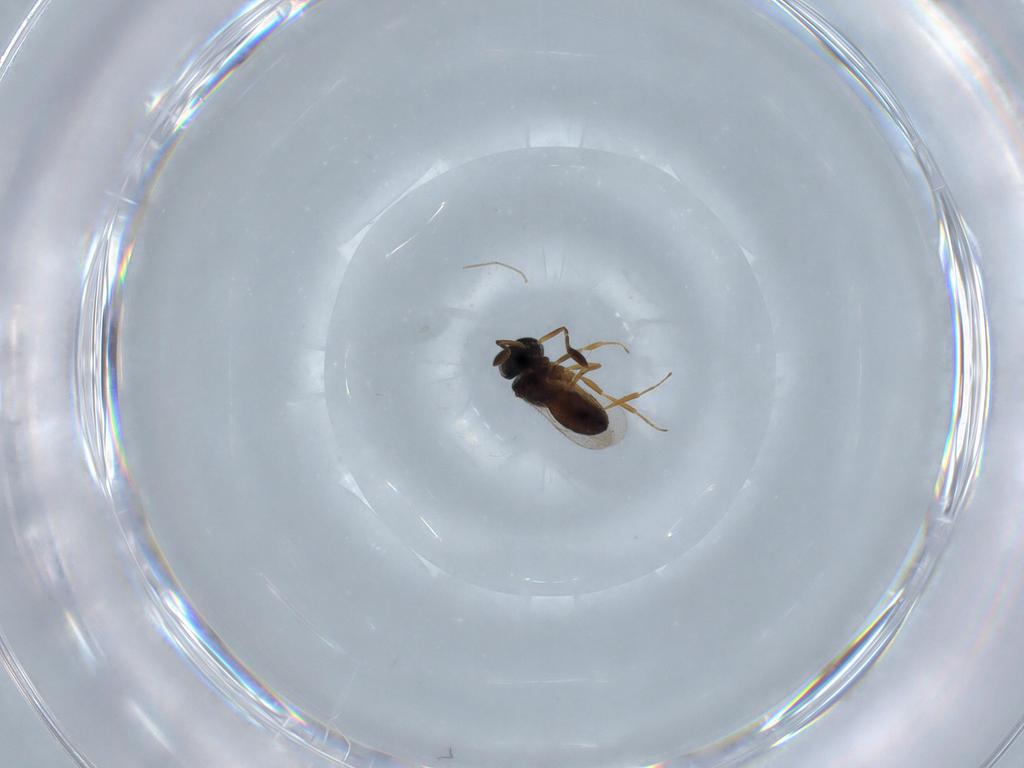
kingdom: Animalia
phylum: Arthropoda
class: Insecta
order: Hymenoptera
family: Scelionidae
